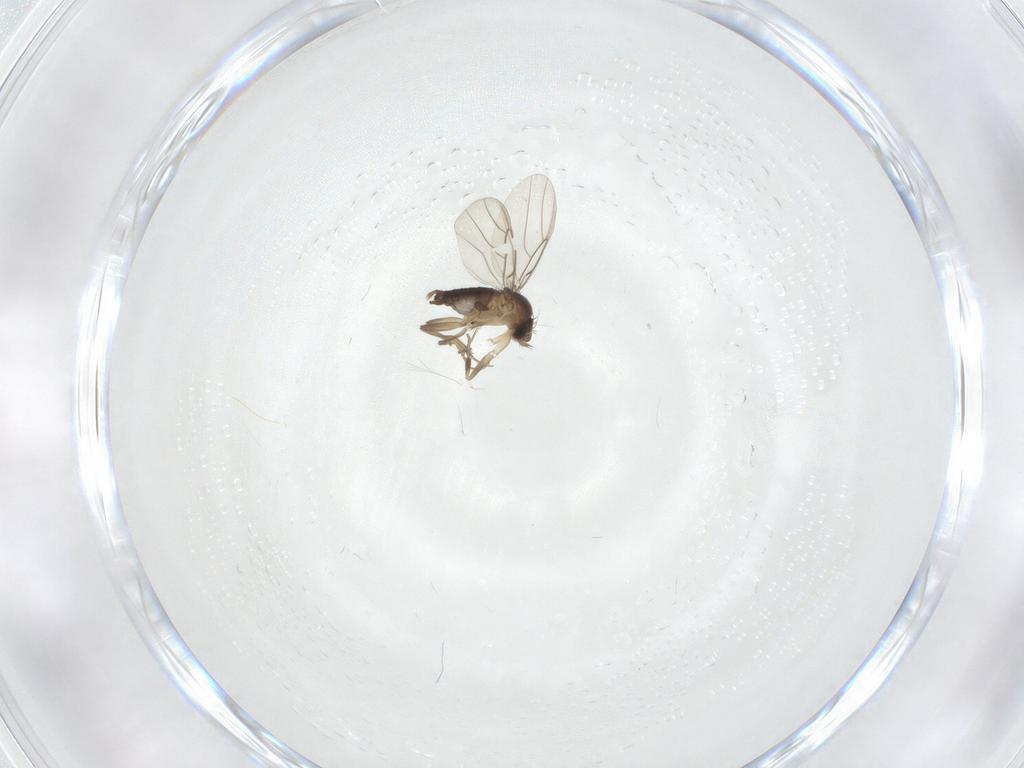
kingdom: Animalia
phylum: Arthropoda
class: Insecta
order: Diptera
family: Phoridae
